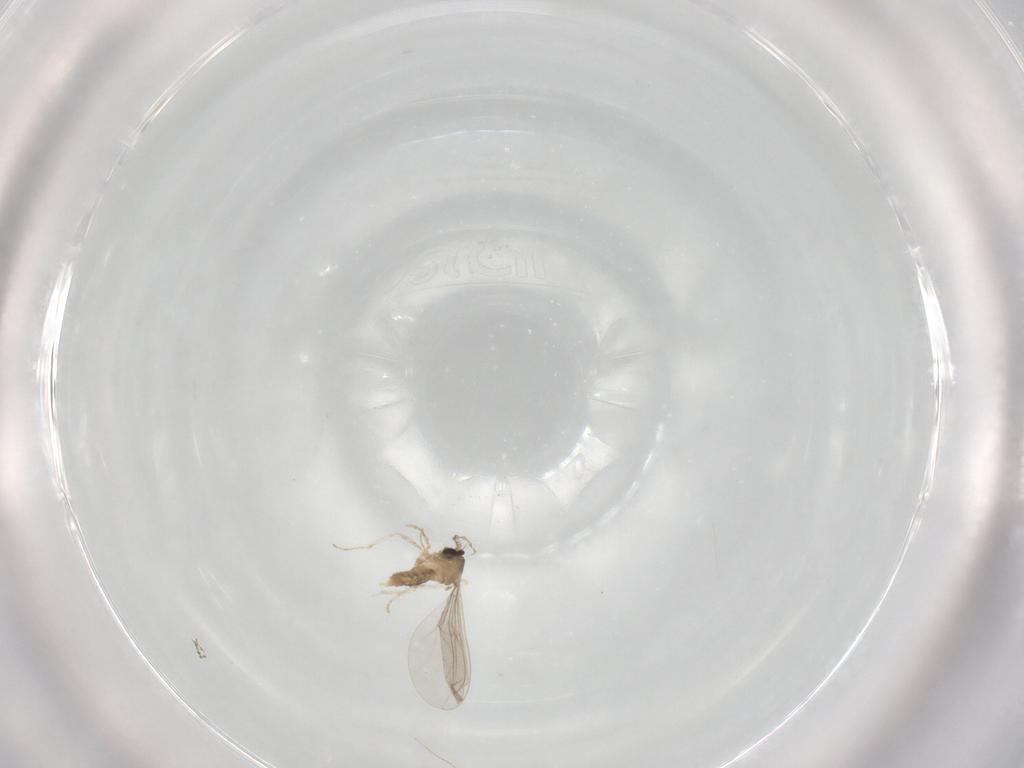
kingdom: Animalia
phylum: Arthropoda
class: Insecta
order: Diptera
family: Cecidomyiidae
